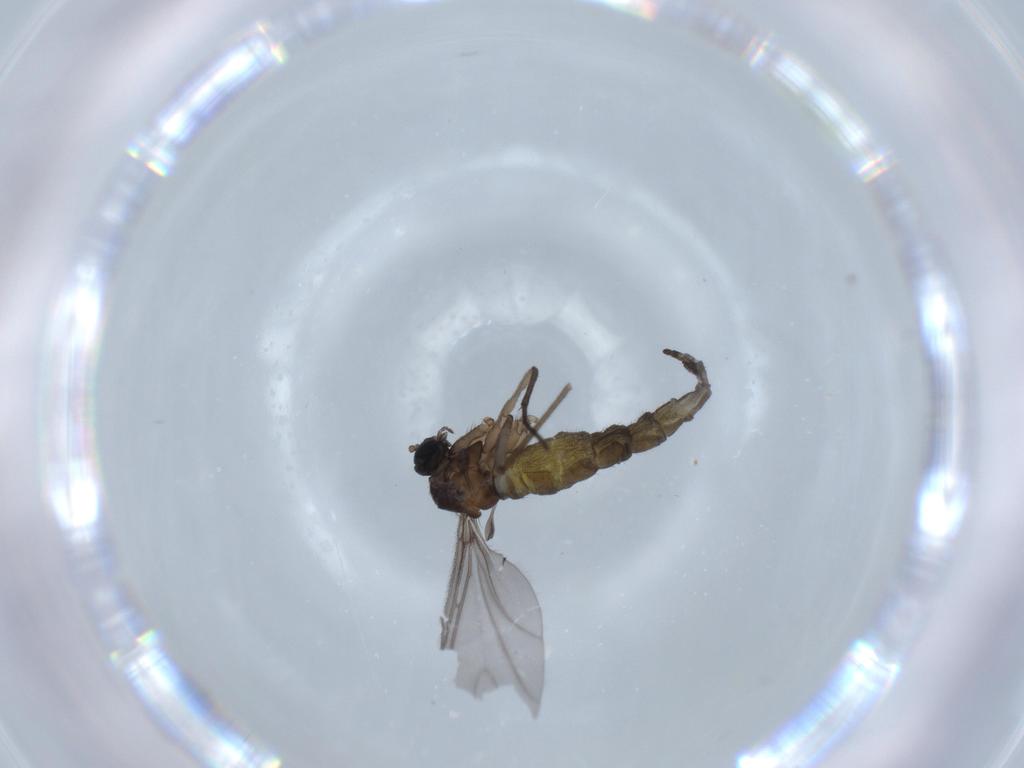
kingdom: Animalia
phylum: Arthropoda
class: Insecta
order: Diptera
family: Sciaridae
